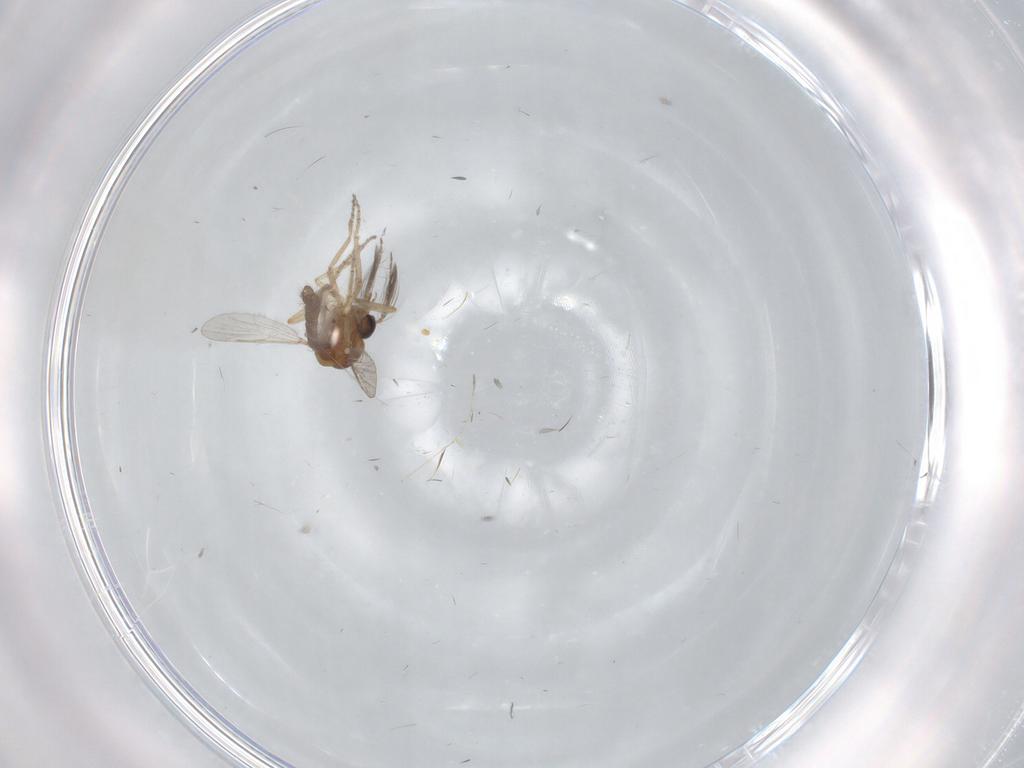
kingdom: Animalia
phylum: Arthropoda
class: Insecta
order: Diptera
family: Ceratopogonidae
